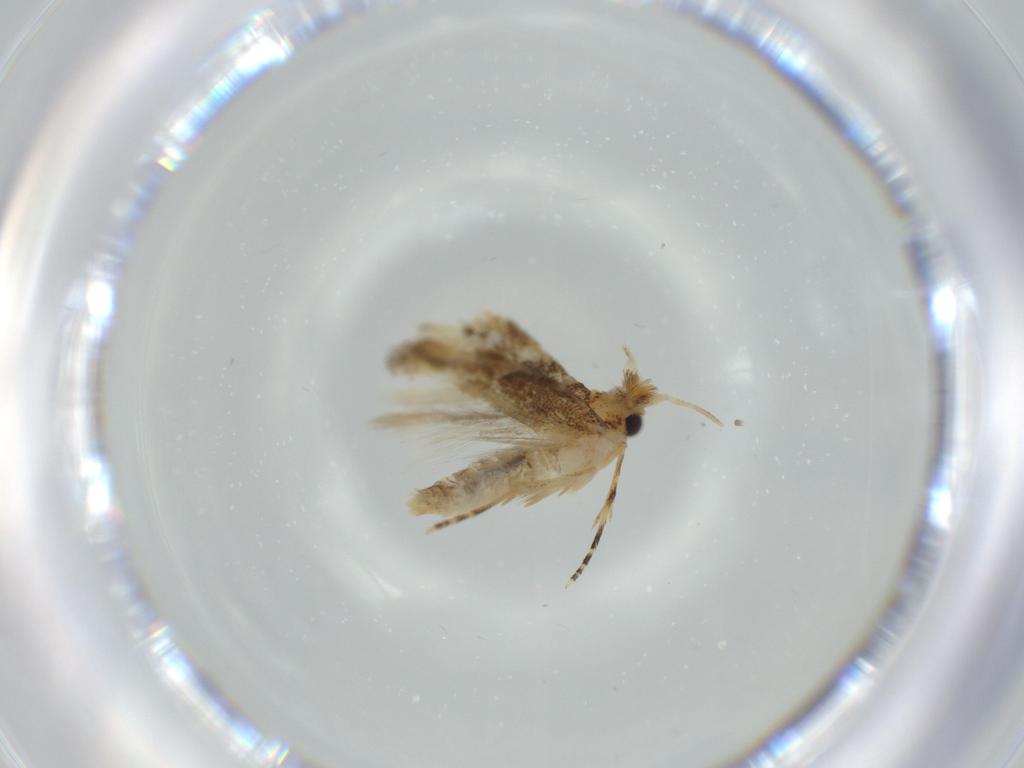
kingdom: Animalia
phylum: Arthropoda
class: Insecta
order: Lepidoptera
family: Bucculatricidae
